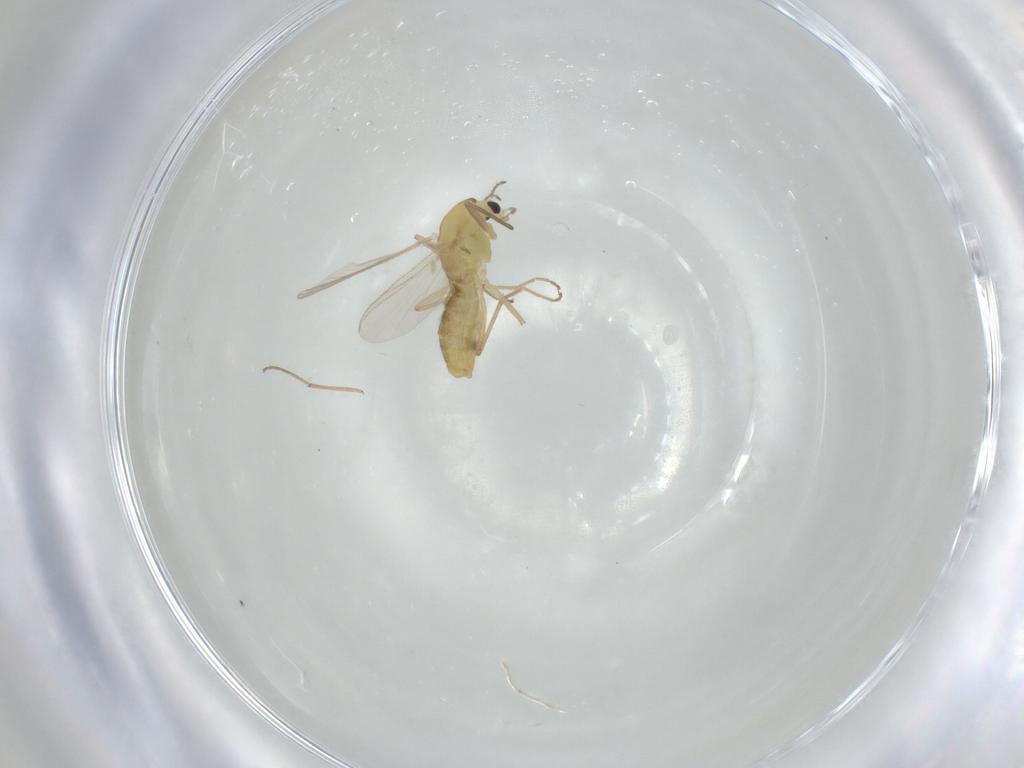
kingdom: Animalia
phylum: Arthropoda
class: Insecta
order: Diptera
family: Chironomidae
